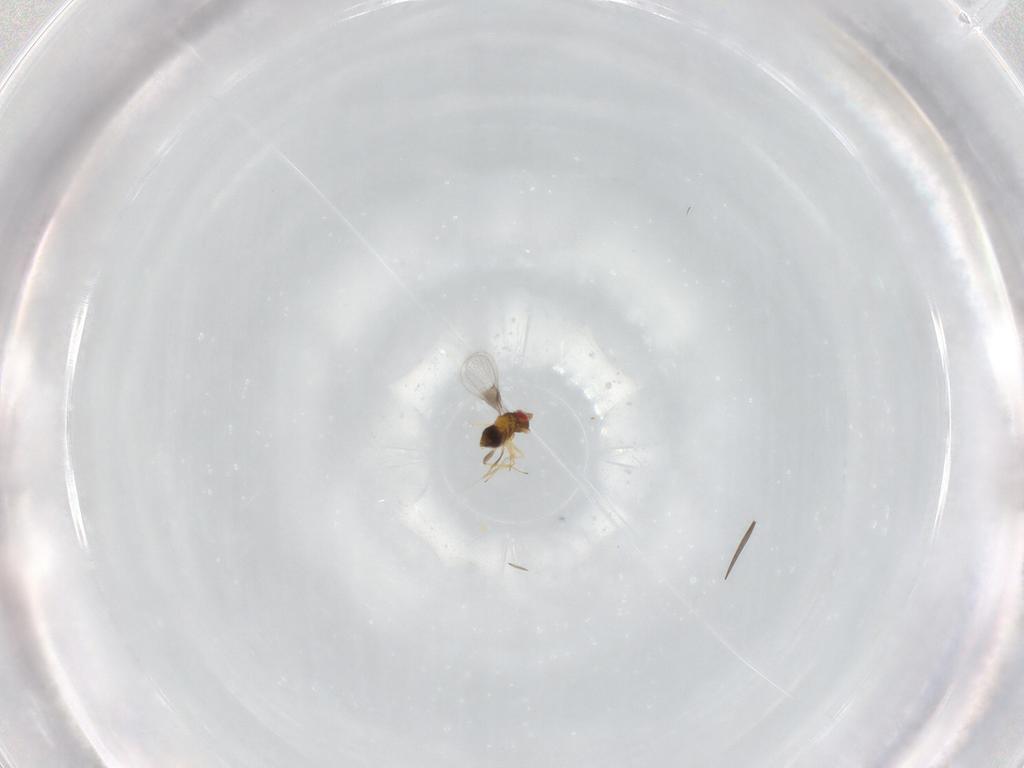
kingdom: Animalia
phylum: Arthropoda
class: Insecta
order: Hymenoptera
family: Trichogrammatidae
